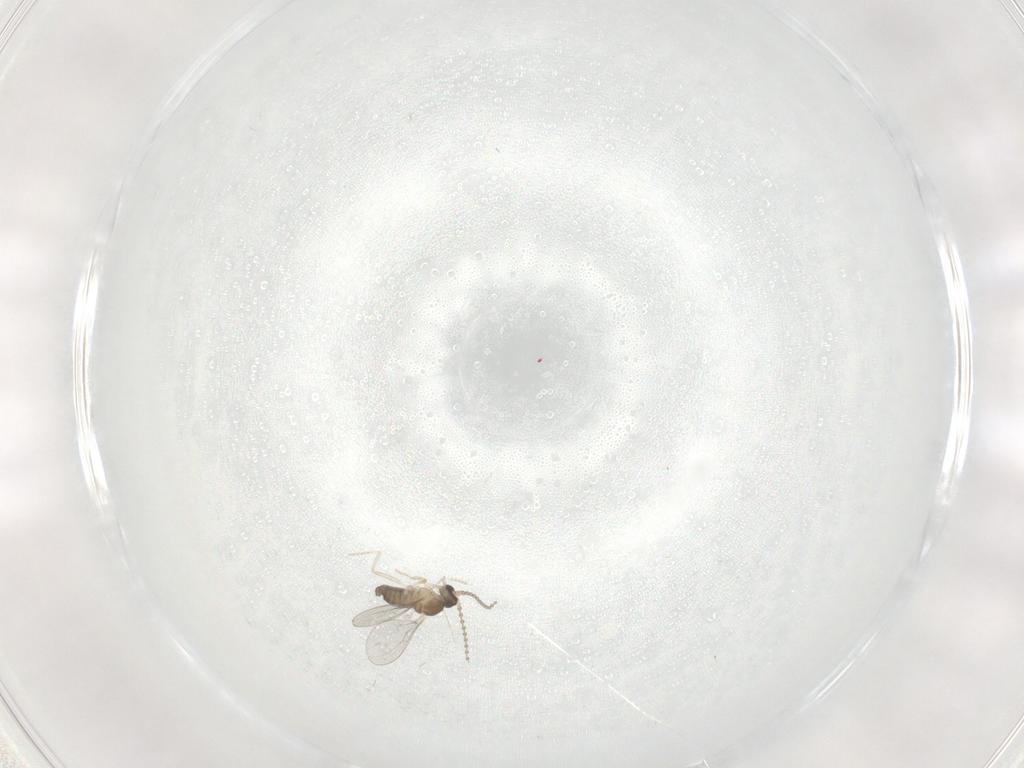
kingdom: Animalia
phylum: Arthropoda
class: Insecta
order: Diptera
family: Cecidomyiidae
